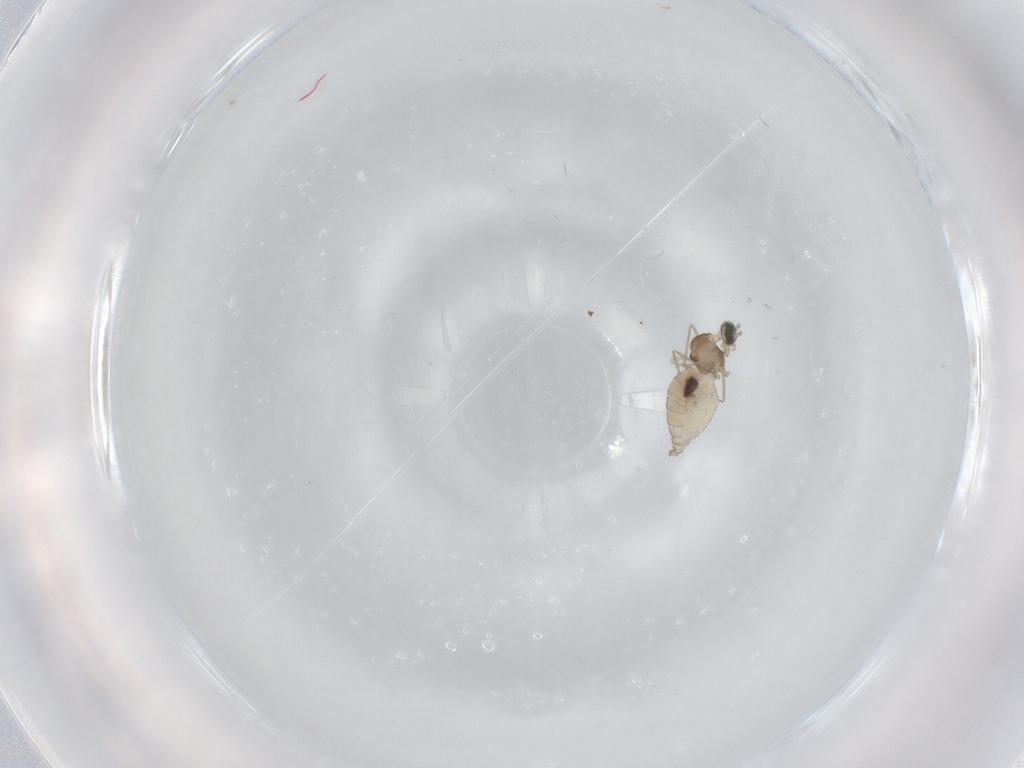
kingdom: Animalia
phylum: Arthropoda
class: Insecta
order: Diptera
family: Cecidomyiidae
